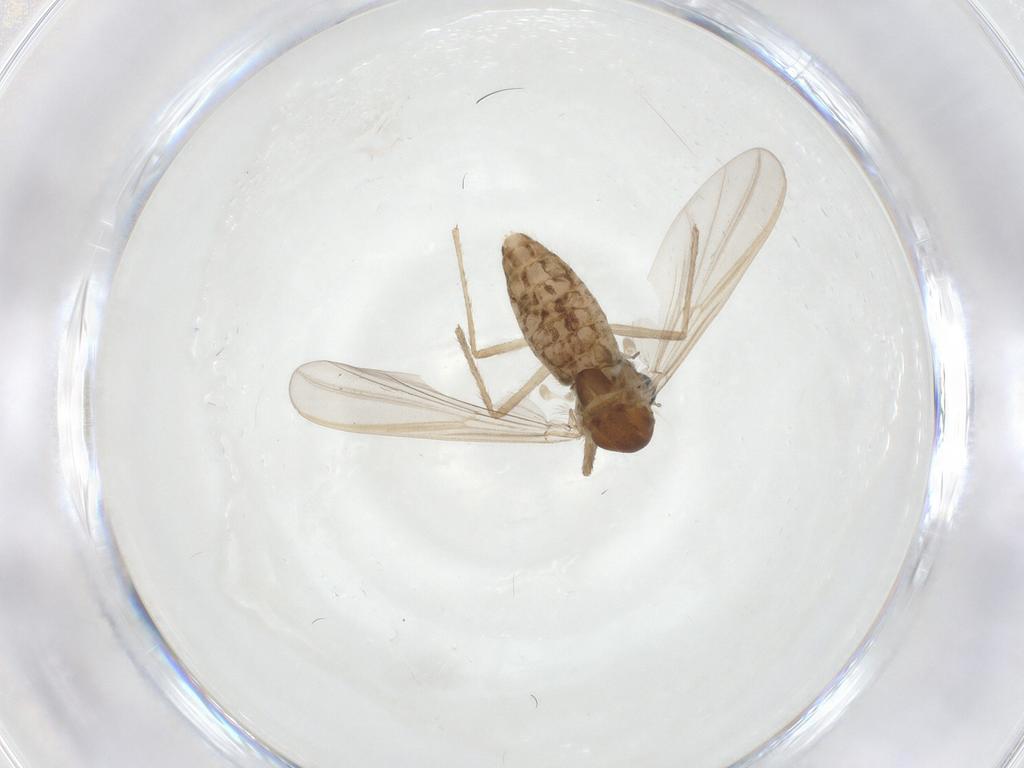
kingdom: Animalia
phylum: Arthropoda
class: Insecta
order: Diptera
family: Chironomidae
